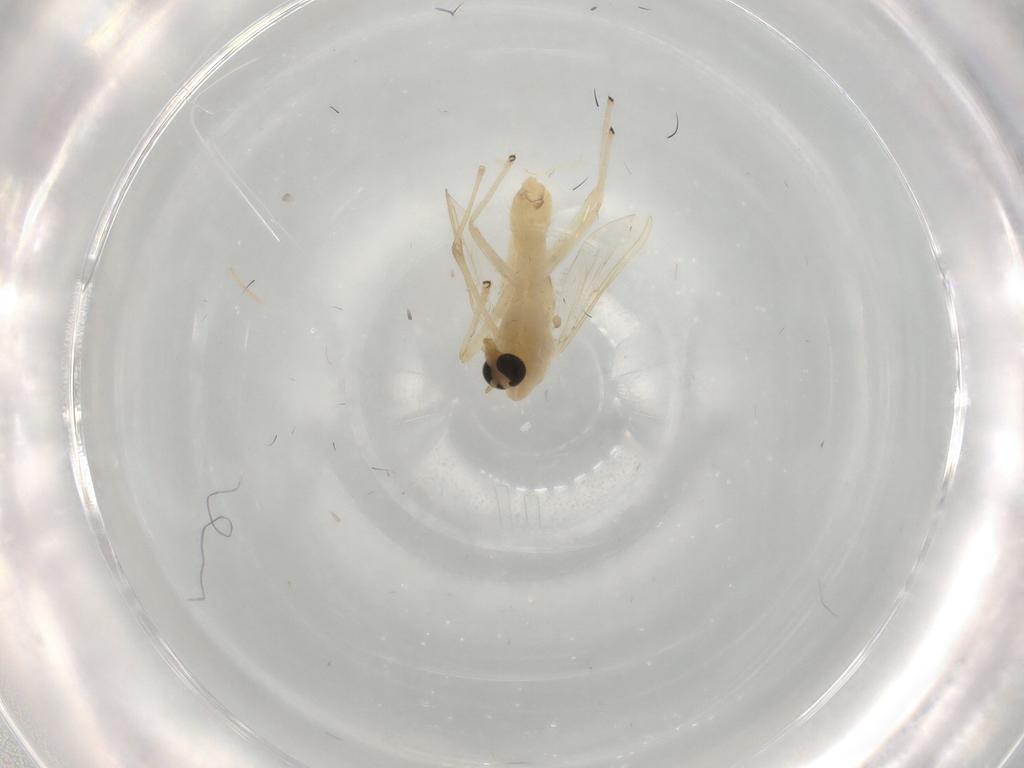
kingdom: Animalia
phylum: Arthropoda
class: Insecta
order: Diptera
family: Chironomidae
